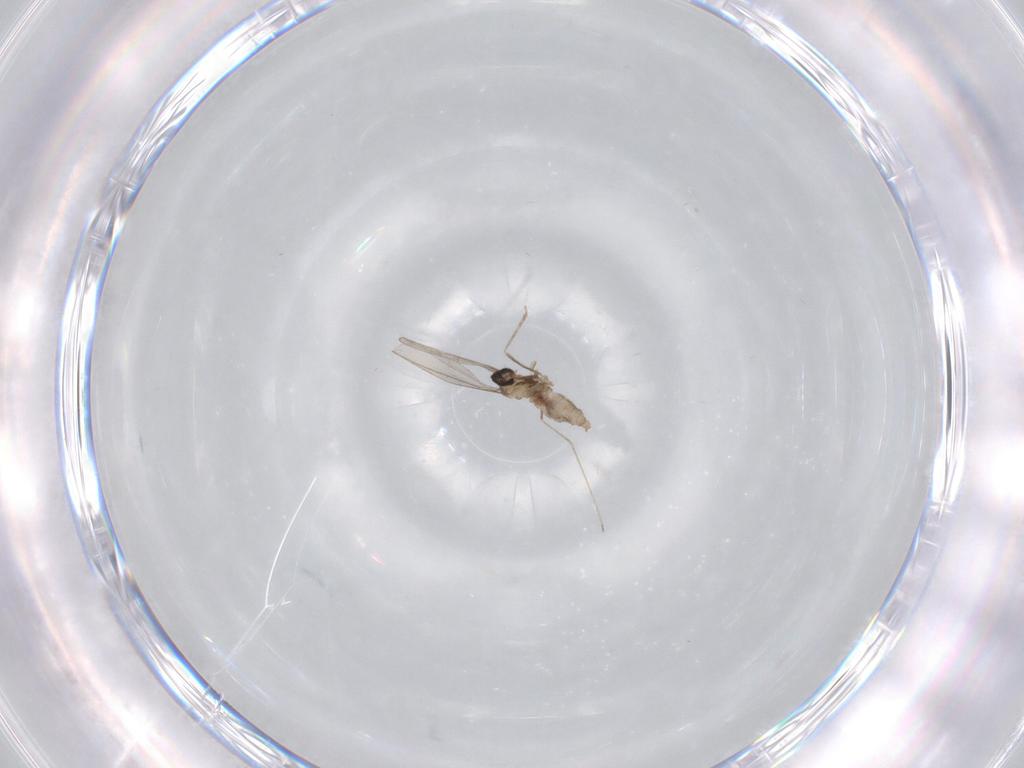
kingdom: Animalia
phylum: Arthropoda
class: Insecta
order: Diptera
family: Cecidomyiidae
